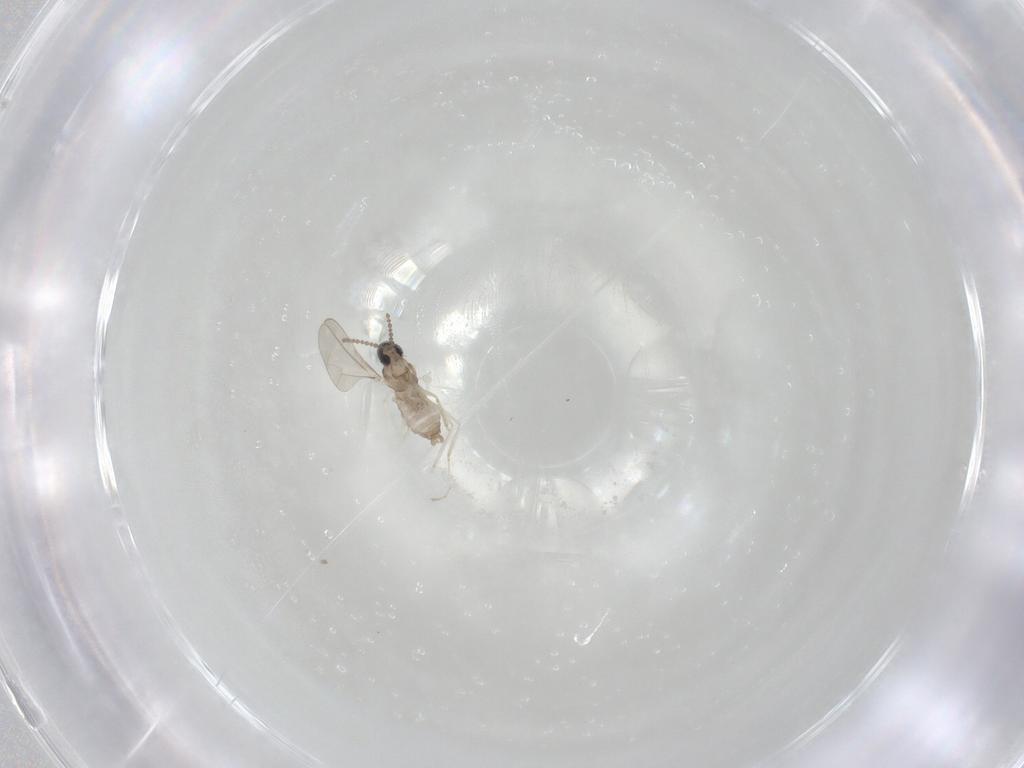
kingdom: Animalia
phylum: Arthropoda
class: Insecta
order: Diptera
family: Cecidomyiidae
